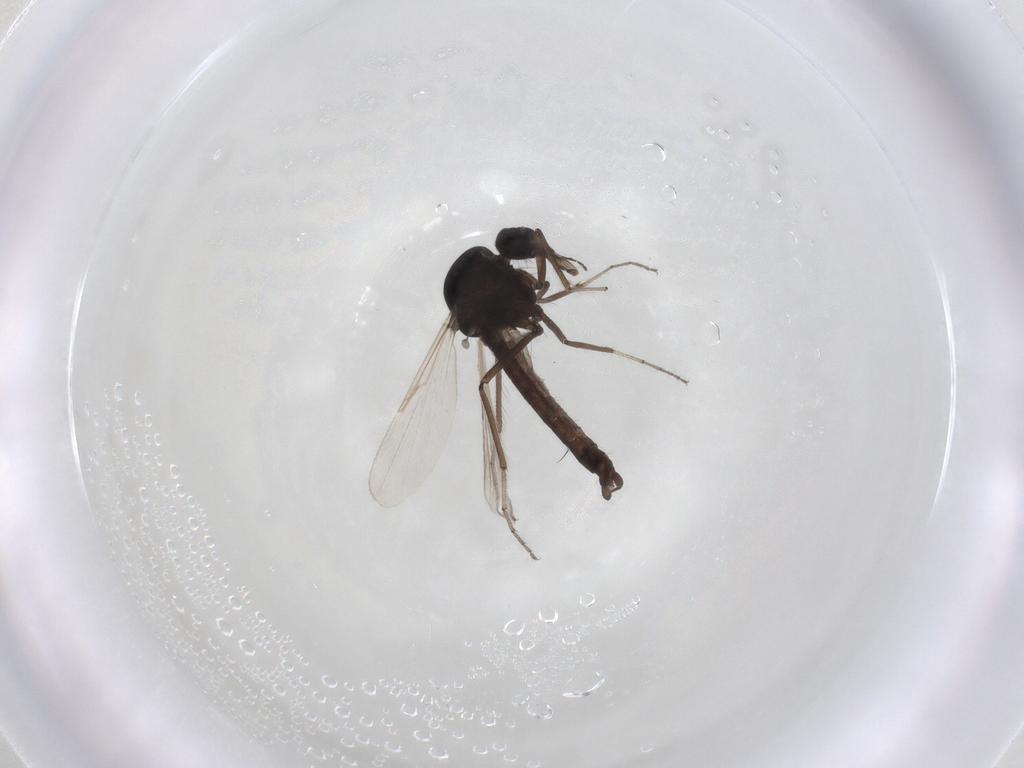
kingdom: Animalia
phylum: Arthropoda
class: Insecta
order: Diptera
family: Ceratopogonidae
